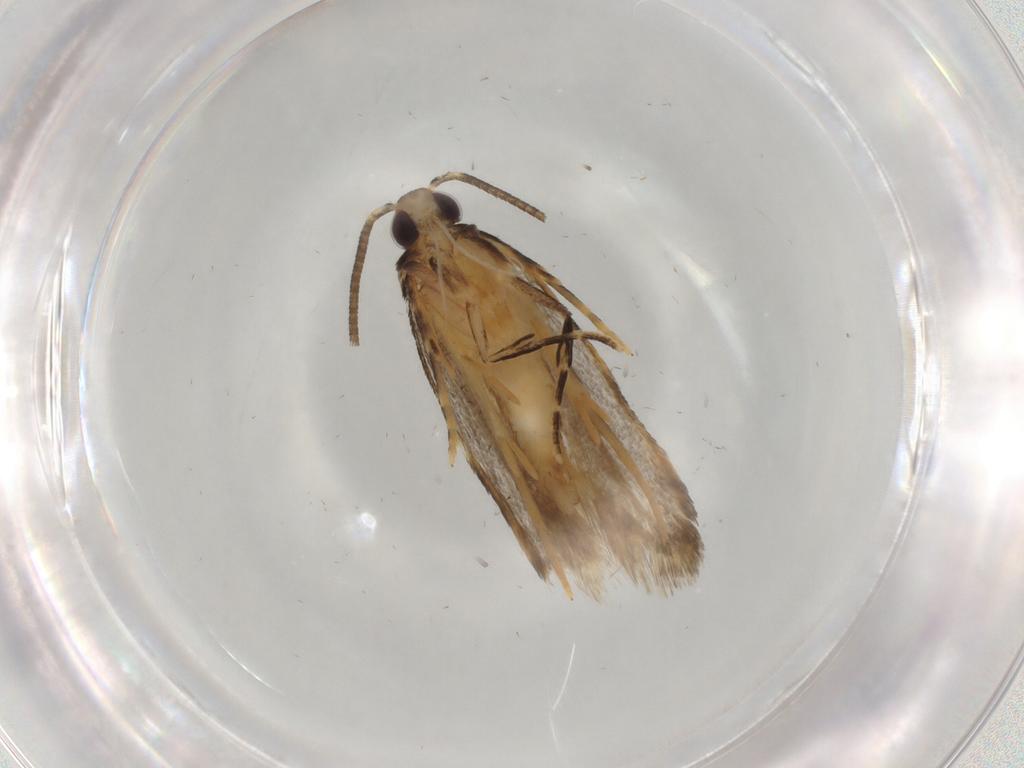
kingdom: Animalia
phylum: Arthropoda
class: Insecta
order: Lepidoptera
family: Autostichidae
